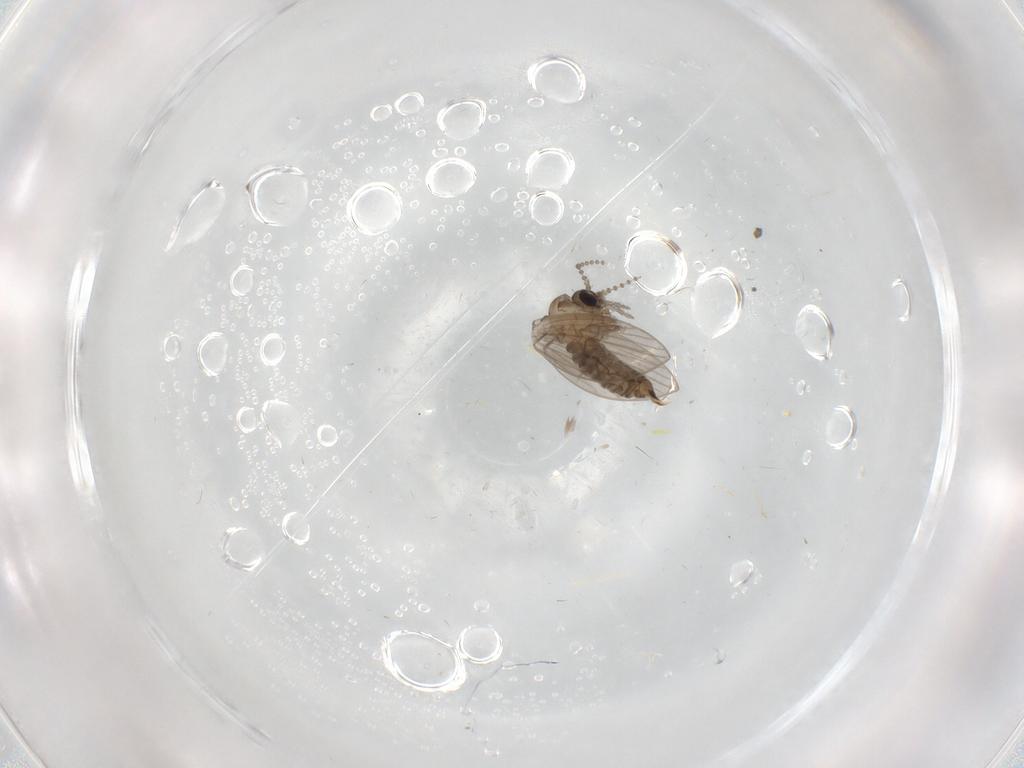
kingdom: Animalia
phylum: Arthropoda
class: Insecta
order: Diptera
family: Psychodidae
